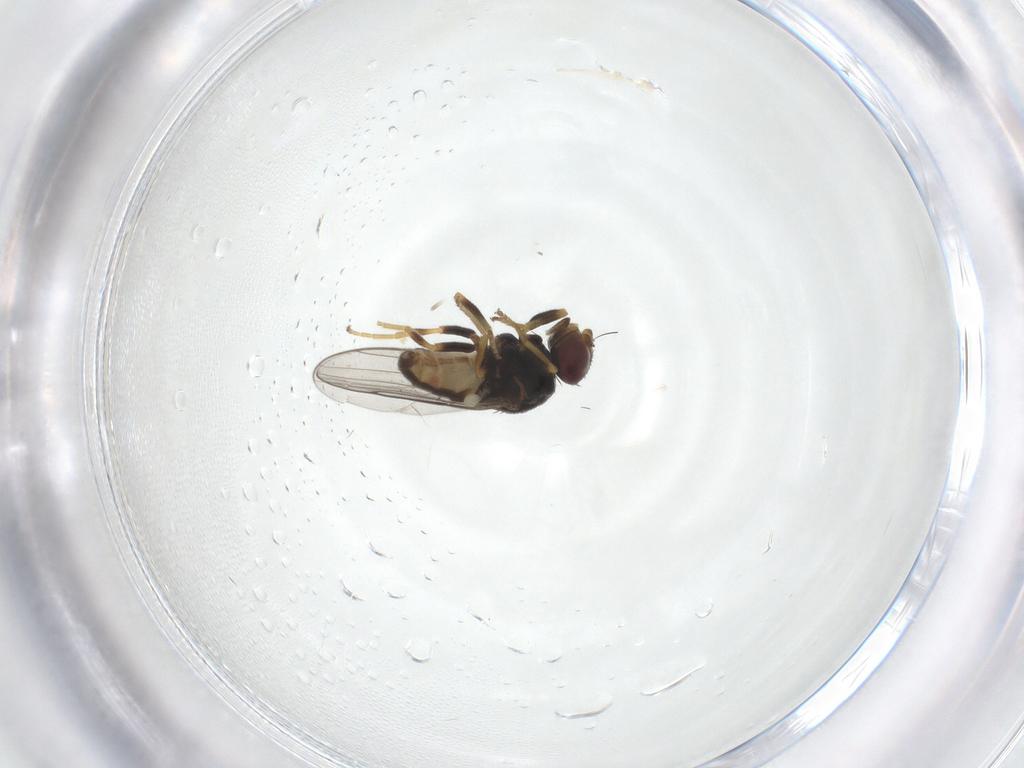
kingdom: Animalia
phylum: Arthropoda
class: Insecta
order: Diptera
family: Chloropidae
